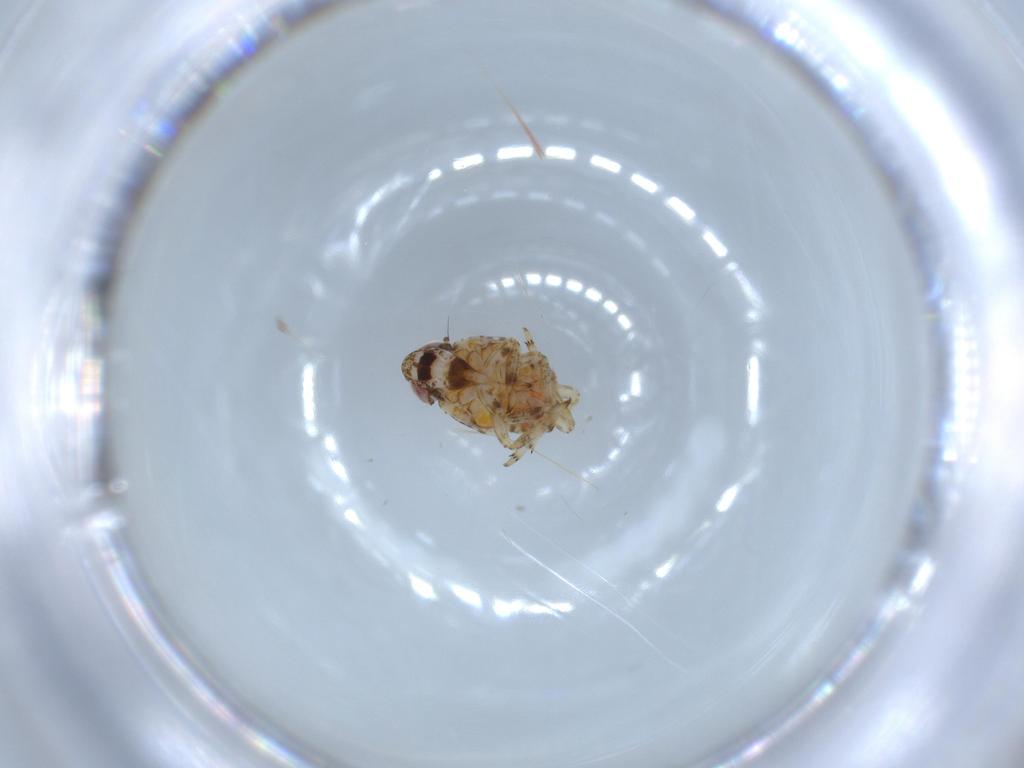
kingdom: Animalia
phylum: Arthropoda
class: Insecta
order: Hemiptera
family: Issidae
